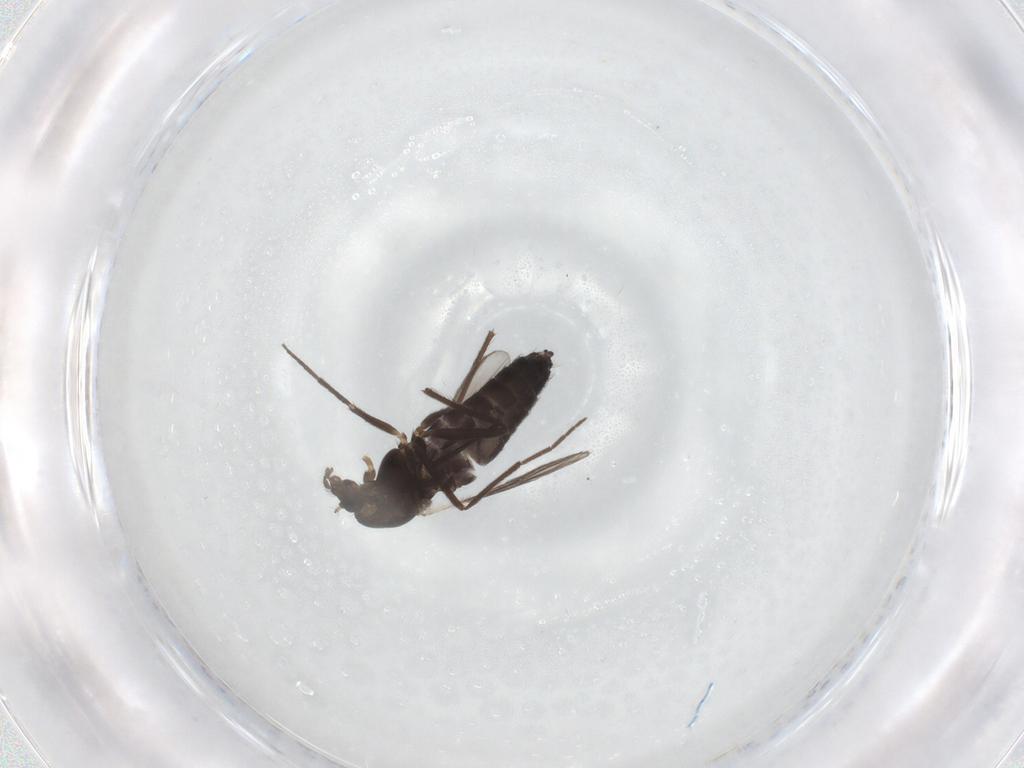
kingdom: Animalia
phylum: Arthropoda
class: Insecta
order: Diptera
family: Chironomidae
